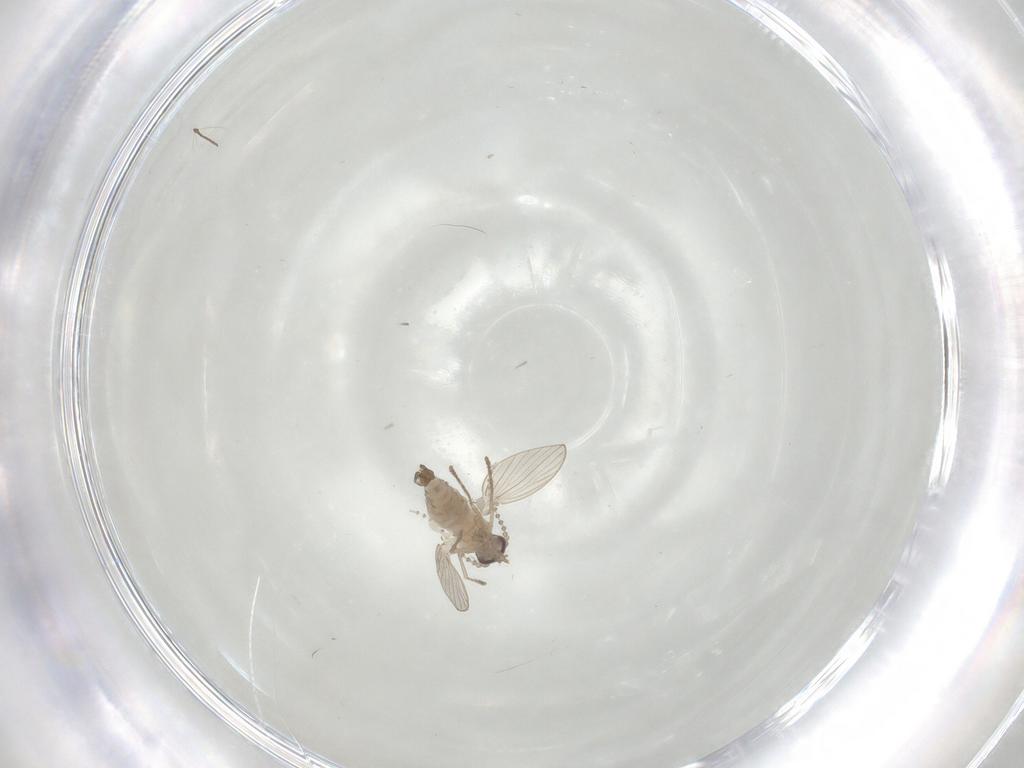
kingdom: Animalia
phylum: Arthropoda
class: Insecta
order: Diptera
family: Chironomidae
